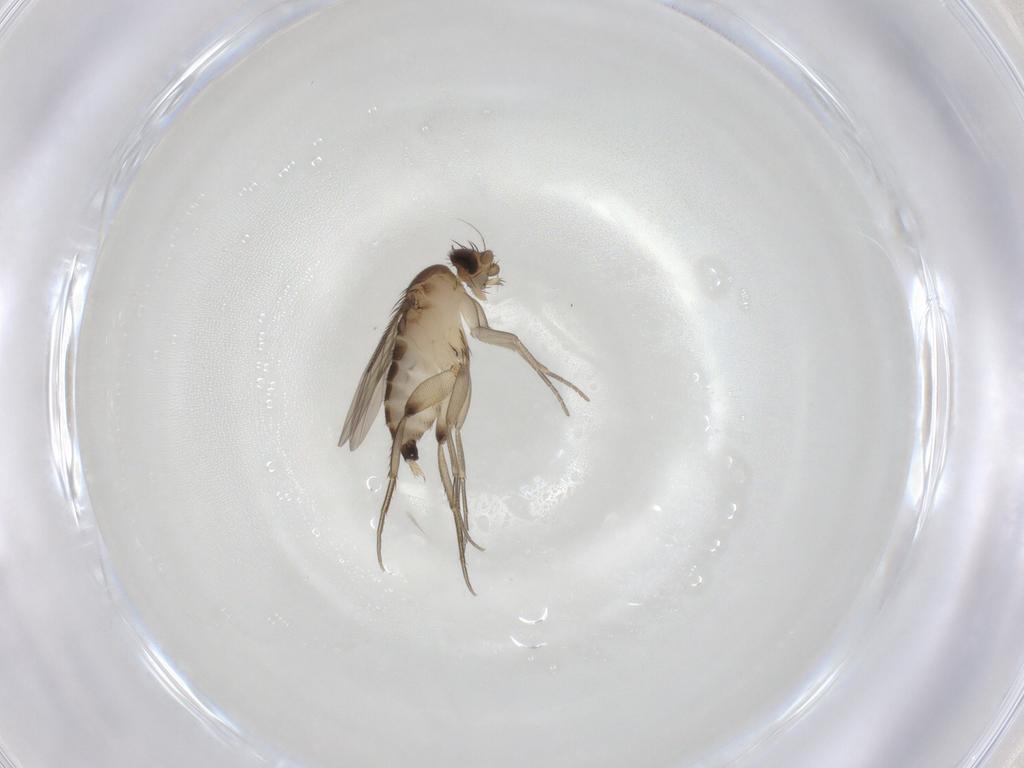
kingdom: Animalia
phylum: Arthropoda
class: Insecta
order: Diptera
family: Phoridae
